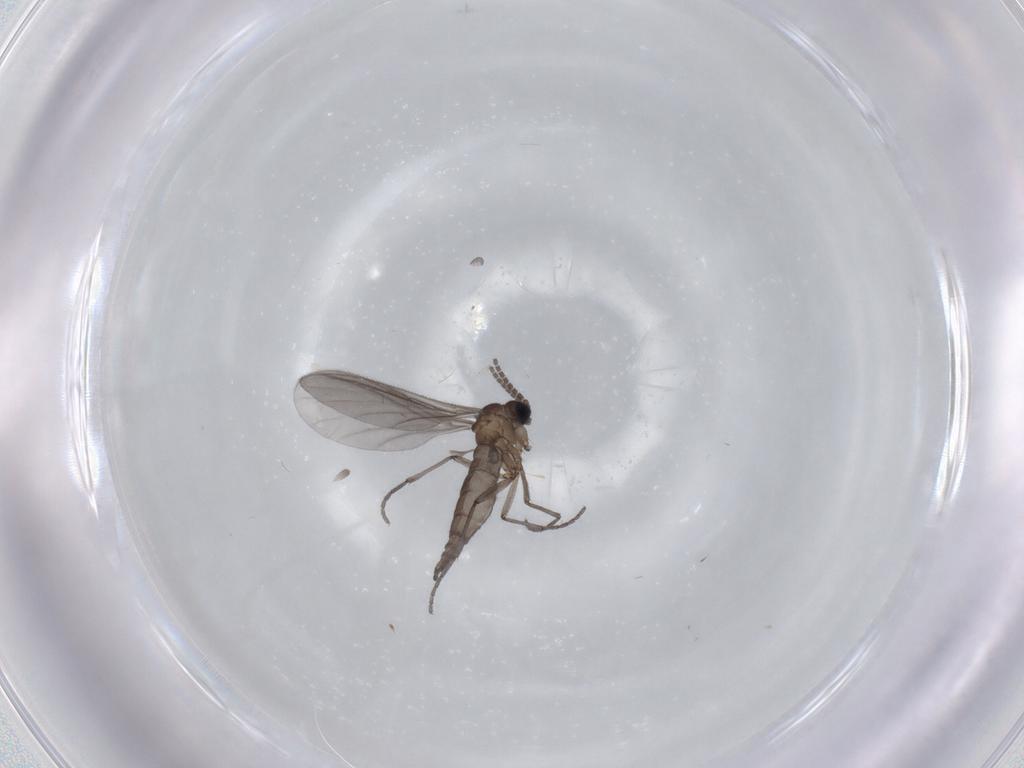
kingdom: Animalia
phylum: Arthropoda
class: Insecta
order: Diptera
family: Sciaridae
